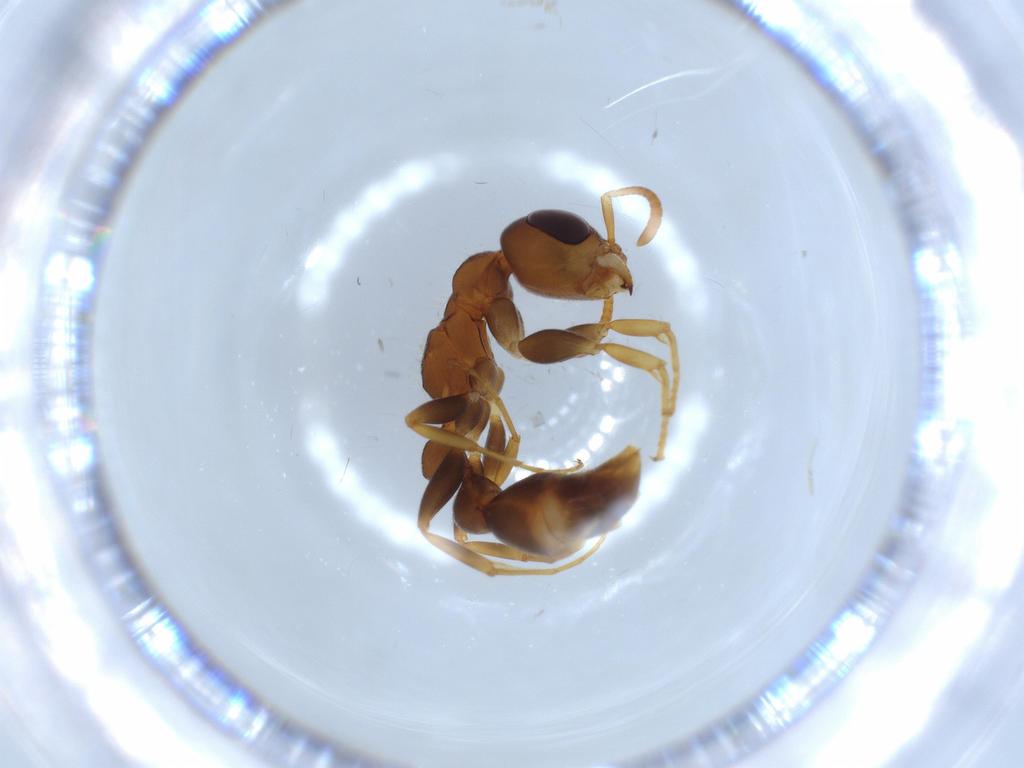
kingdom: Animalia
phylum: Arthropoda
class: Insecta
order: Hymenoptera
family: Formicidae
